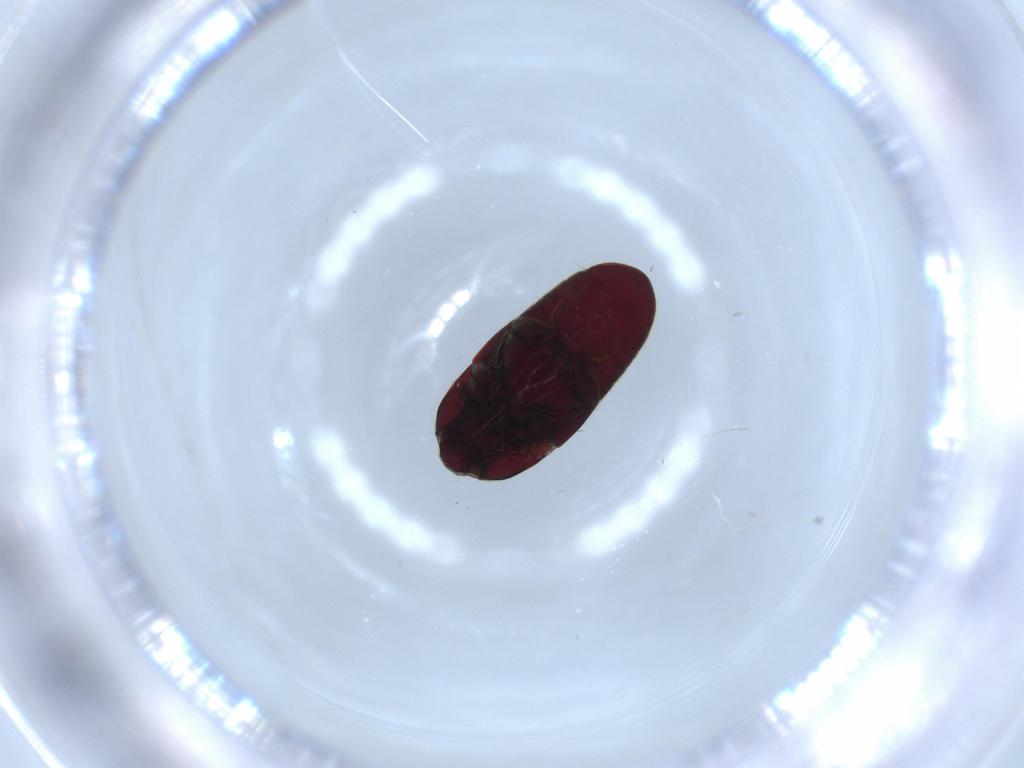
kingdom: Animalia
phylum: Arthropoda
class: Insecta
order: Coleoptera
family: Throscidae
